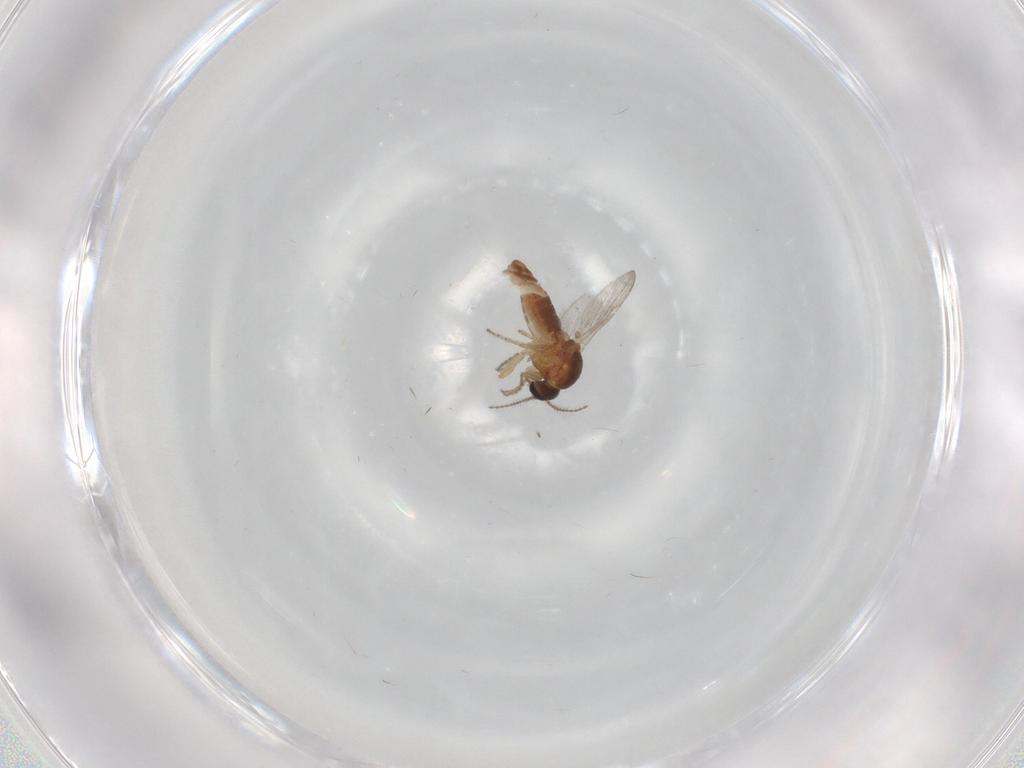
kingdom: Animalia
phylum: Arthropoda
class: Insecta
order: Diptera
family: Ceratopogonidae
